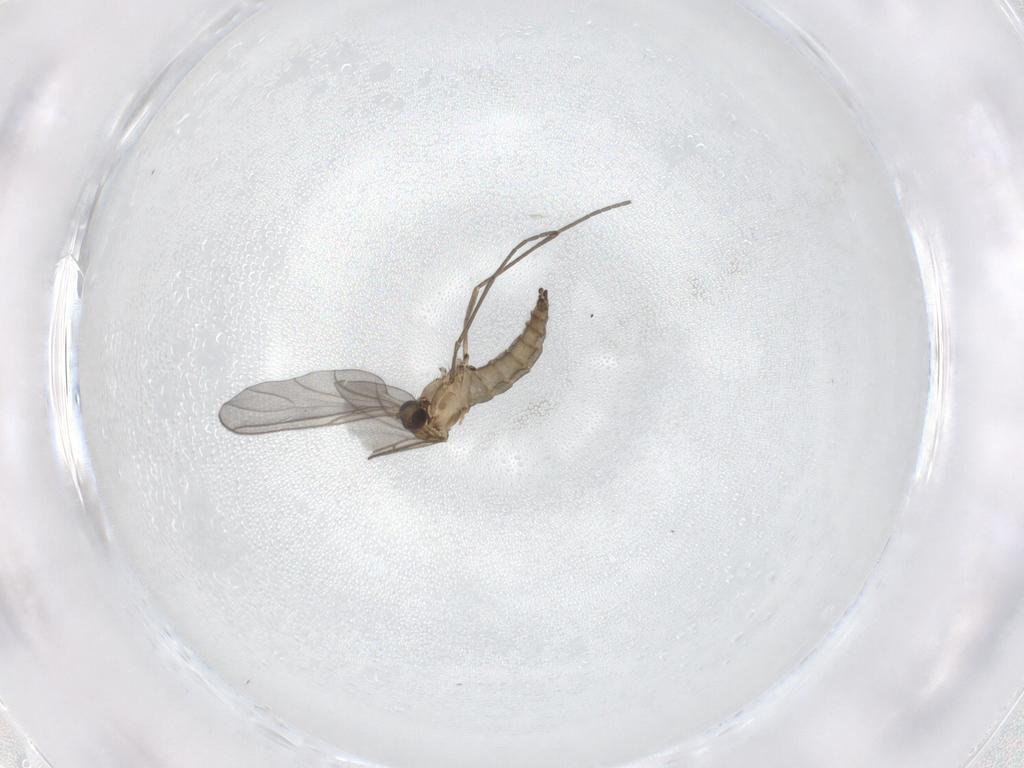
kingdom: Animalia
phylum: Arthropoda
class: Insecta
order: Diptera
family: Sciaridae
